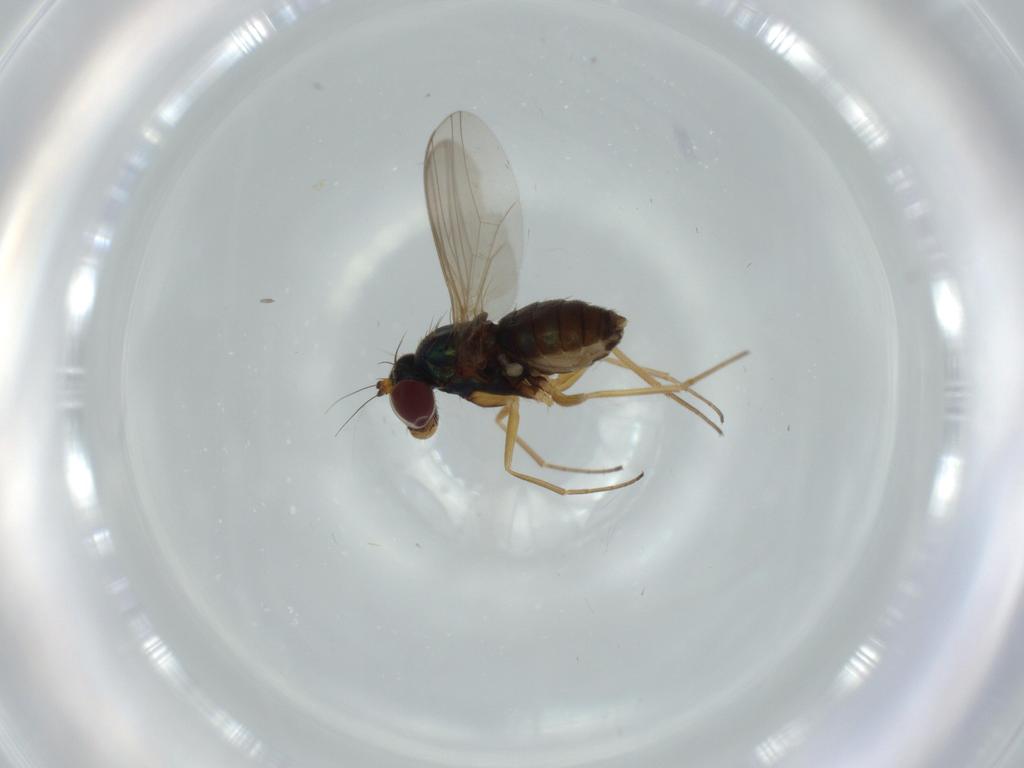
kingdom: Animalia
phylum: Arthropoda
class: Insecta
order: Diptera
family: Dolichopodidae
